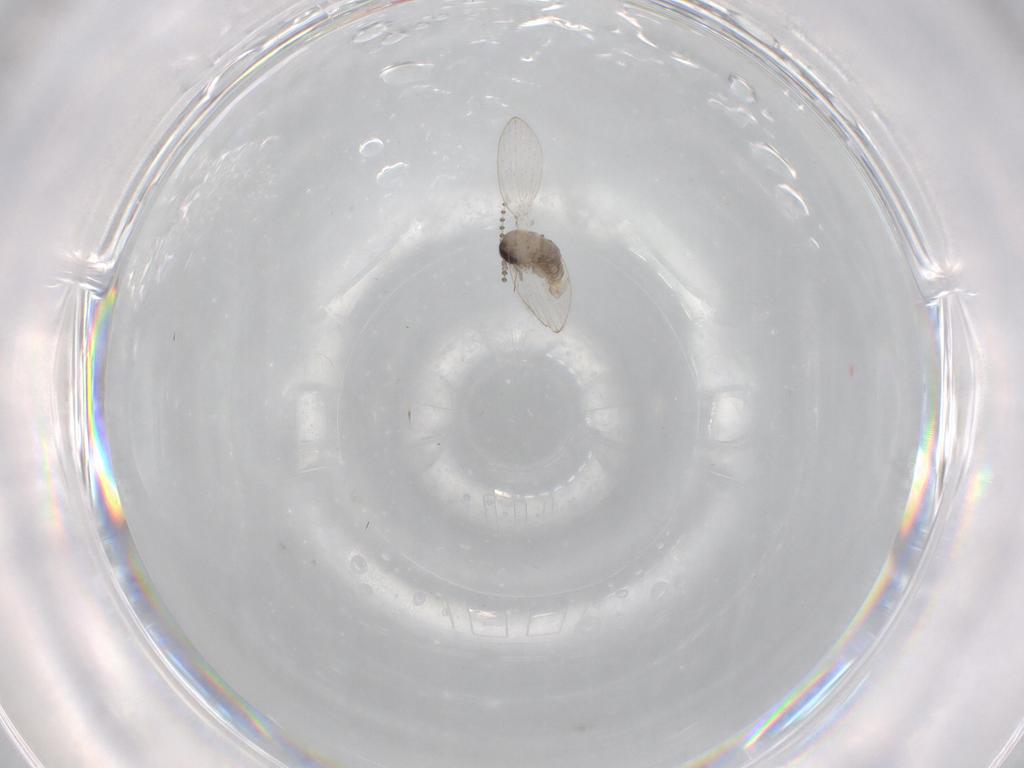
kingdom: Animalia
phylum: Arthropoda
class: Insecta
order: Diptera
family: Psychodidae
